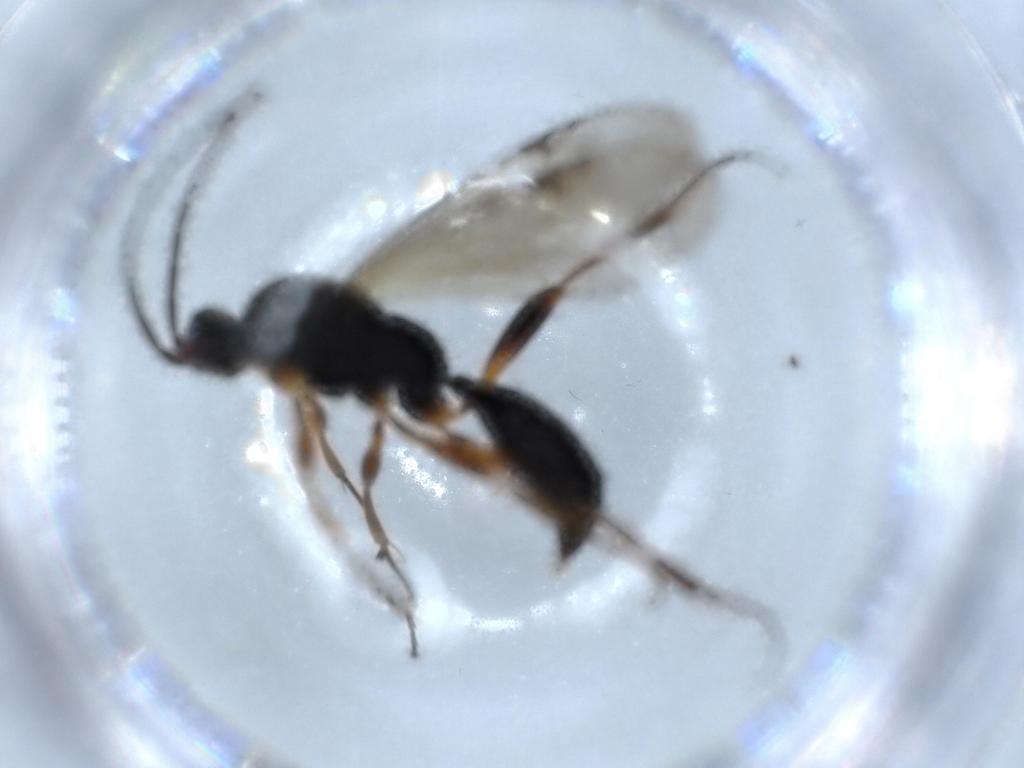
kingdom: Animalia
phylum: Arthropoda
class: Insecta
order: Hymenoptera
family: Proctotrupidae
